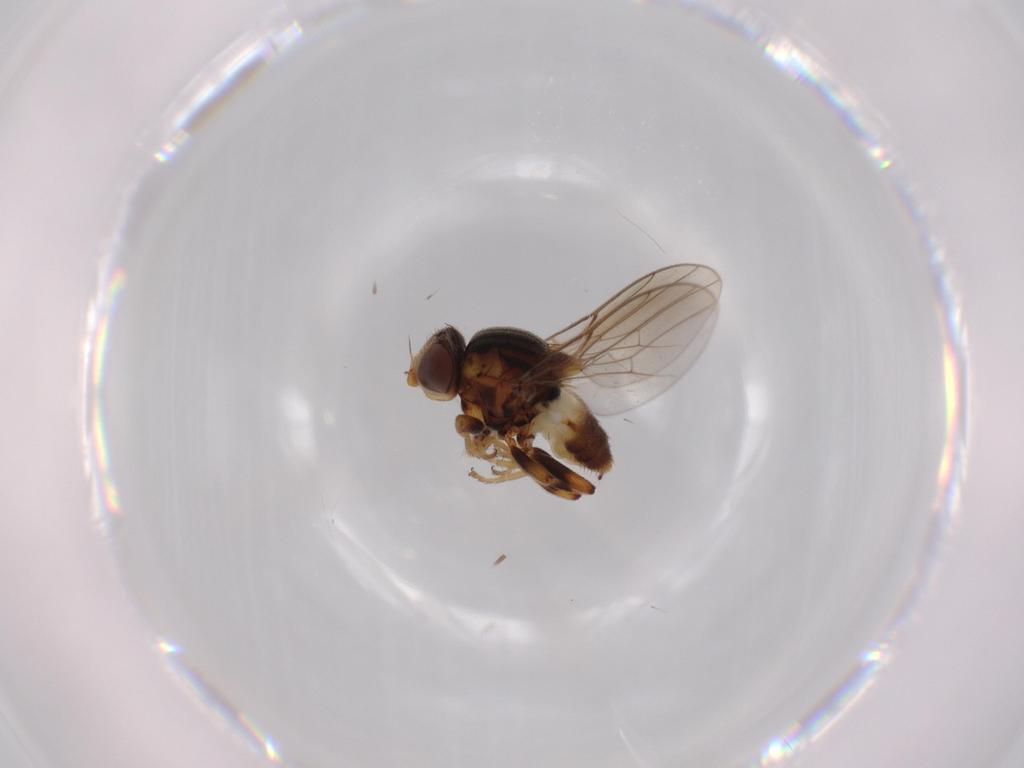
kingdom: Animalia
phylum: Arthropoda
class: Insecta
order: Diptera
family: Chloropidae
